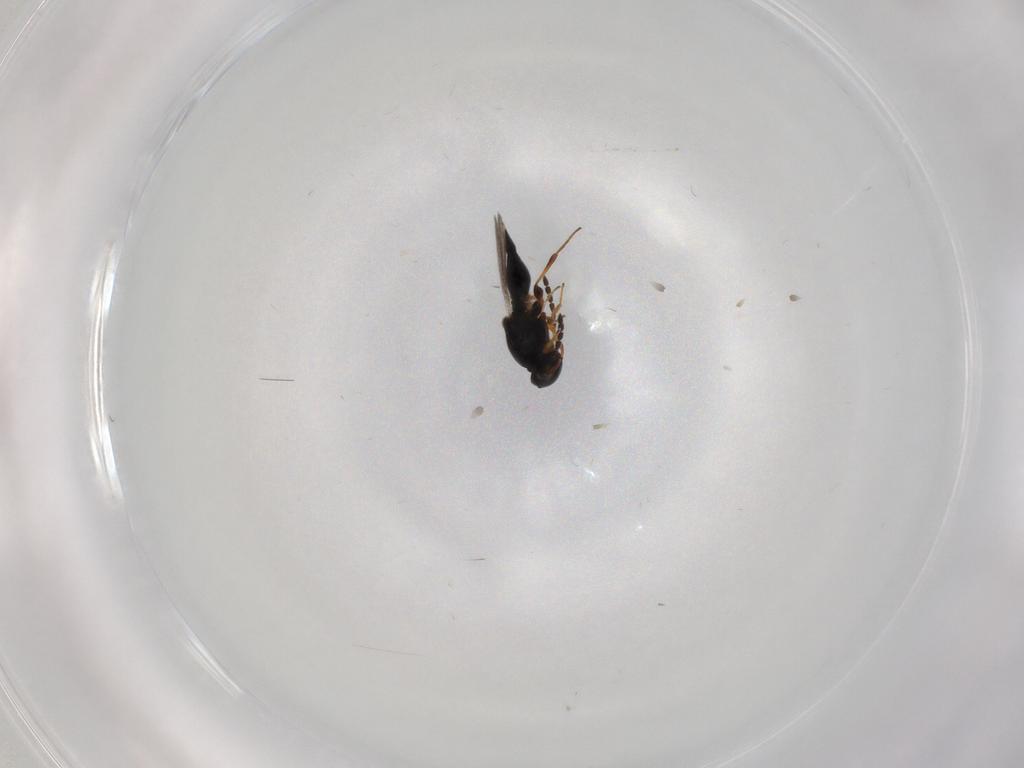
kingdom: Animalia
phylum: Arthropoda
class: Insecta
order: Hymenoptera
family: Platygastridae
